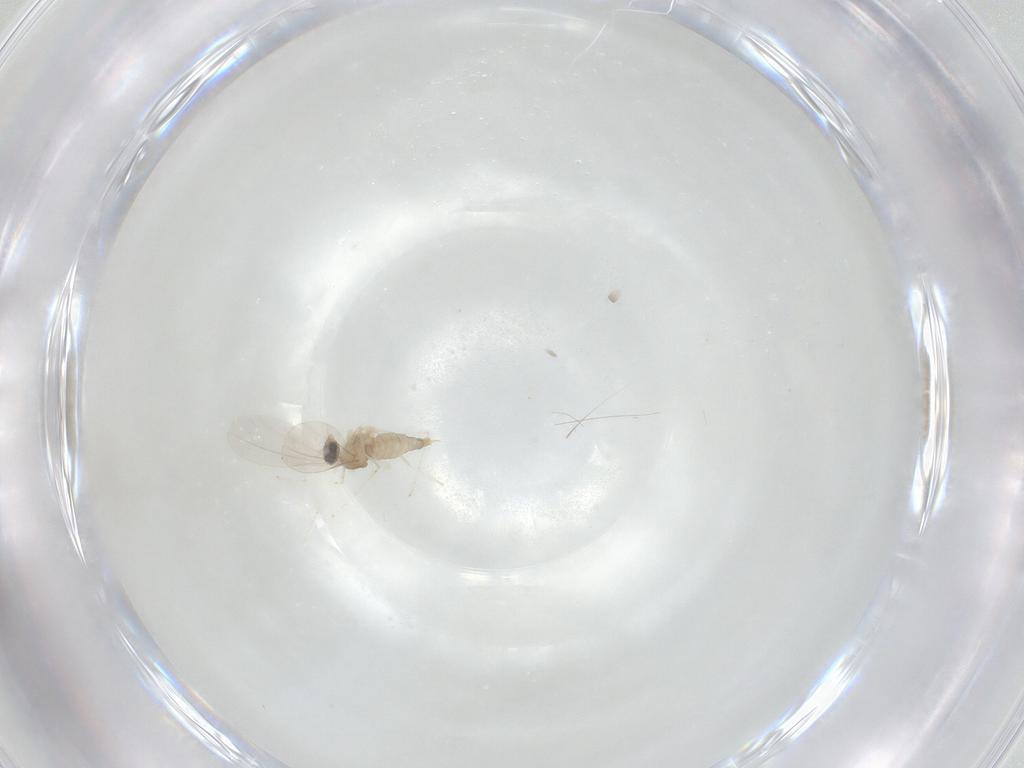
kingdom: Animalia
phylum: Arthropoda
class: Insecta
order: Diptera
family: Cecidomyiidae
